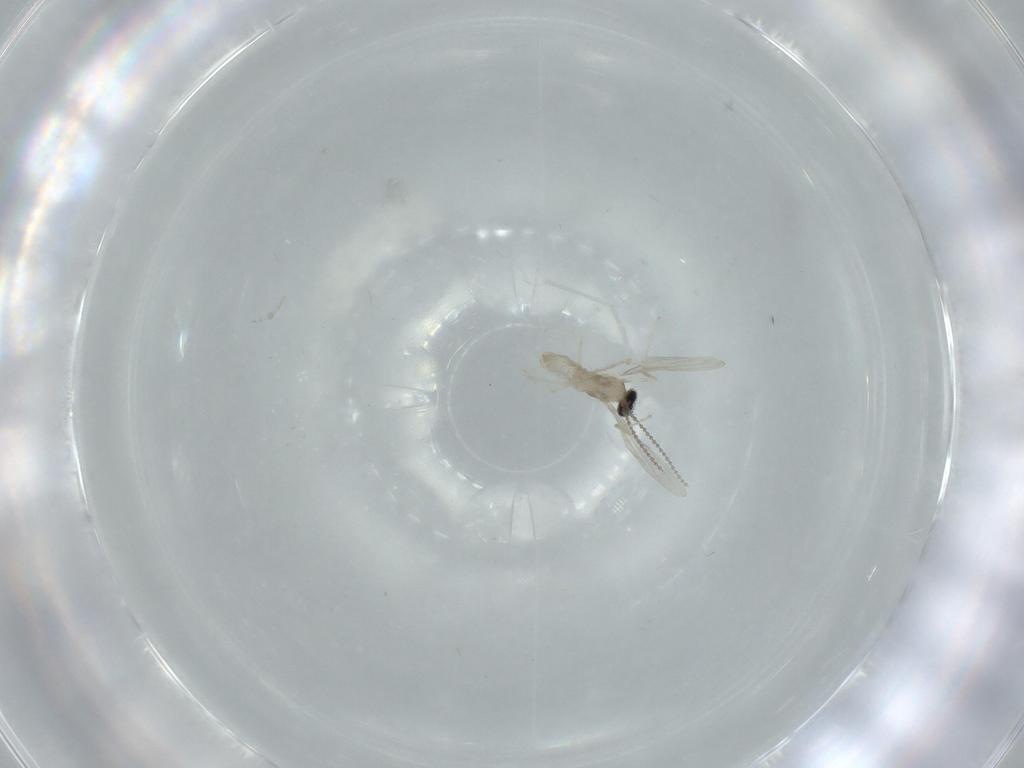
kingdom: Animalia
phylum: Arthropoda
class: Insecta
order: Diptera
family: Cecidomyiidae
